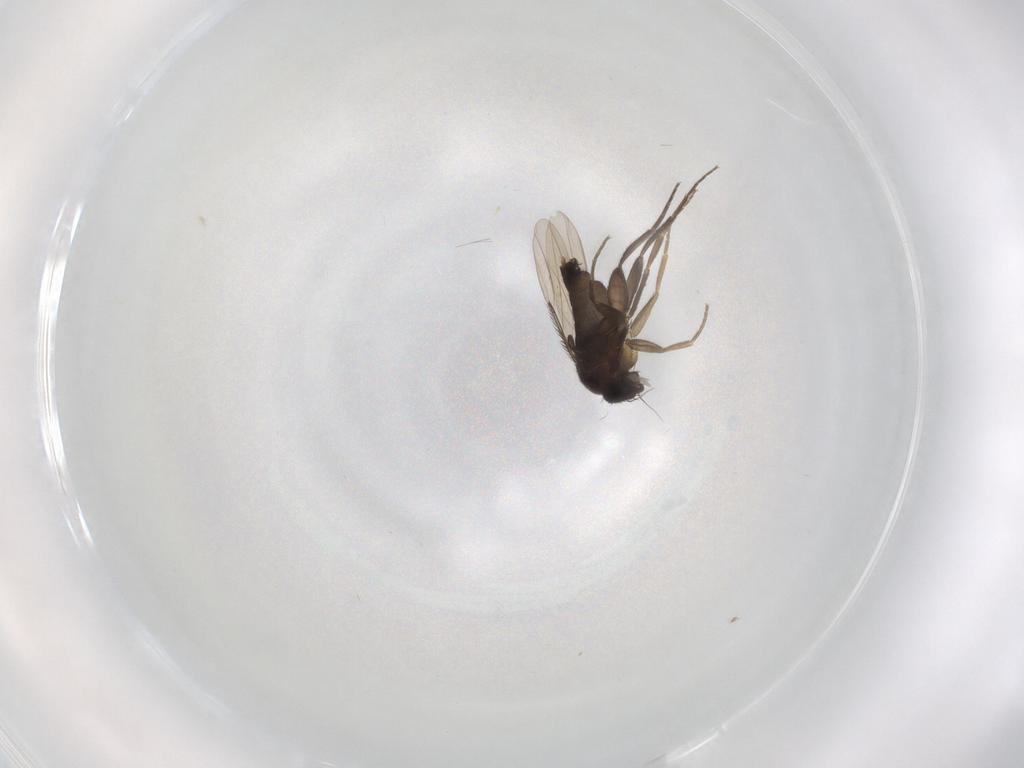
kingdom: Animalia
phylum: Arthropoda
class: Insecta
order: Diptera
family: Phoridae
